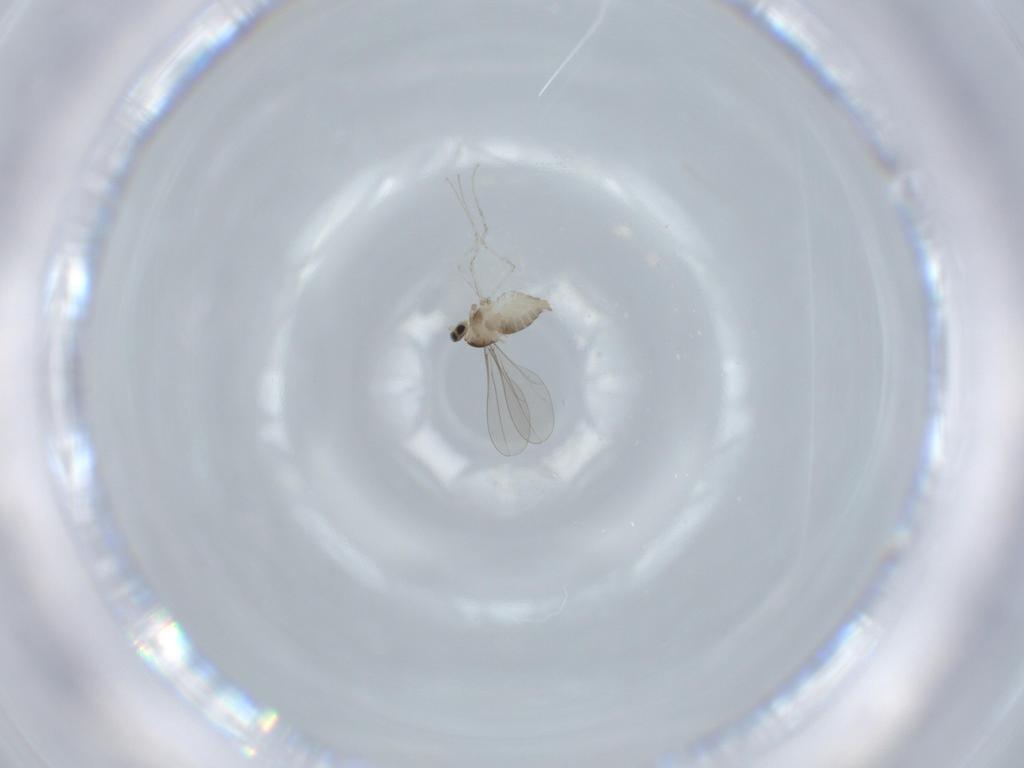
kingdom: Animalia
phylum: Arthropoda
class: Insecta
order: Diptera
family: Cecidomyiidae
